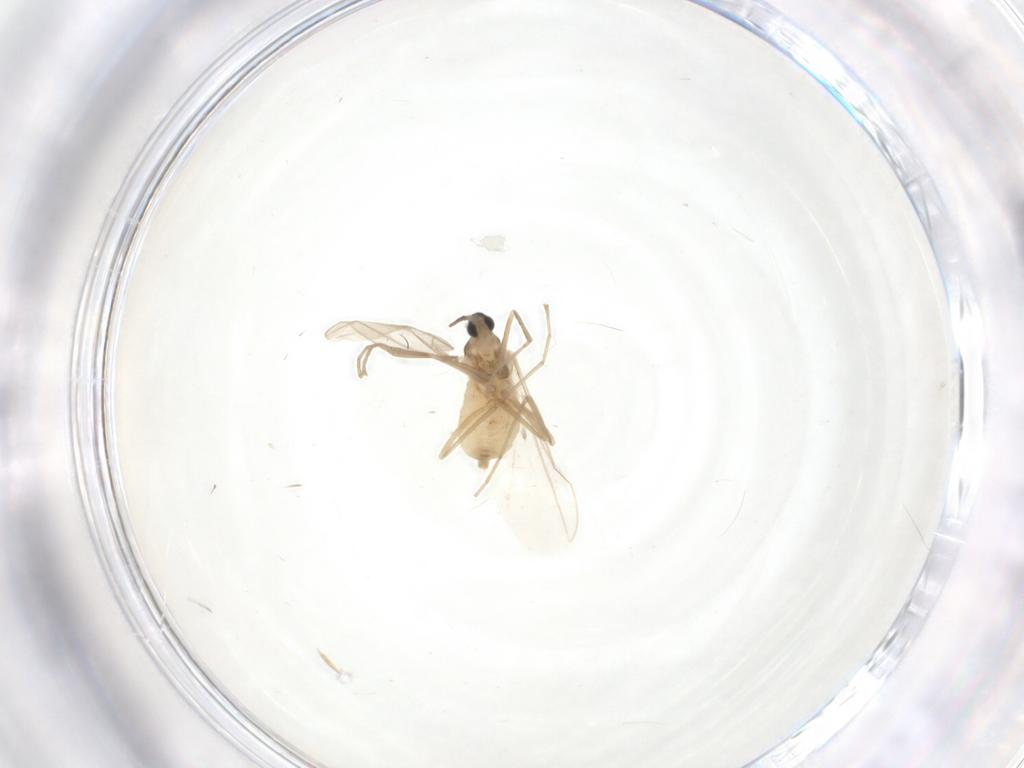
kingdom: Animalia
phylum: Arthropoda
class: Insecta
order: Diptera
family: Cecidomyiidae
